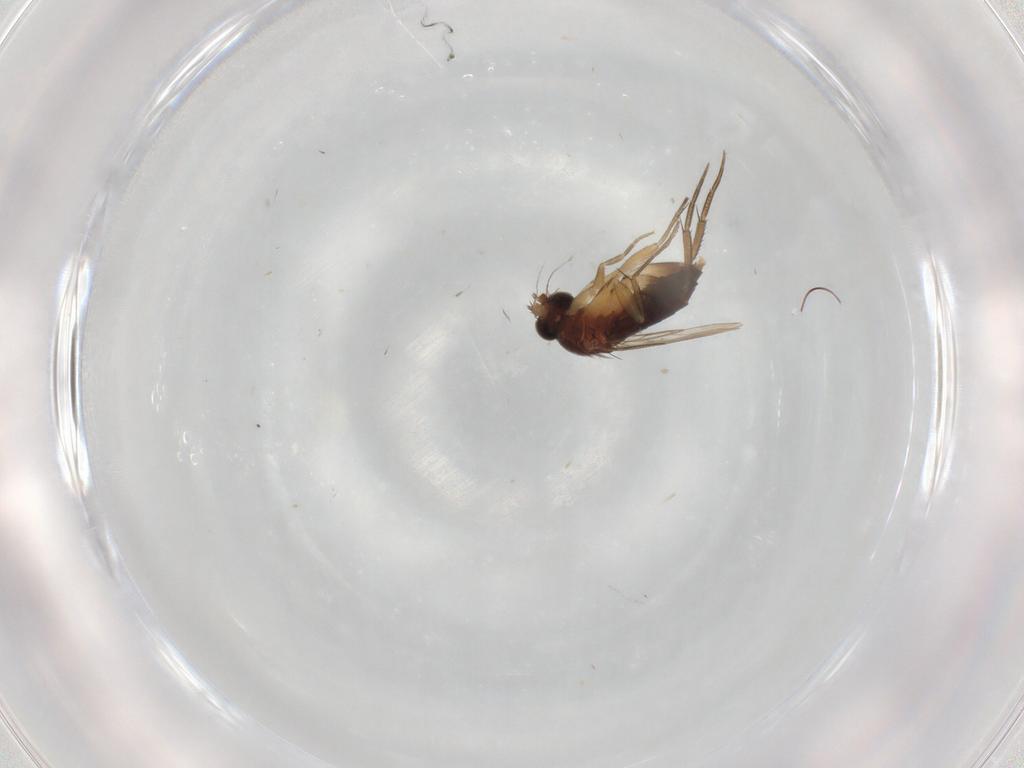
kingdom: Animalia
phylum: Arthropoda
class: Insecta
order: Diptera
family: Phoridae
